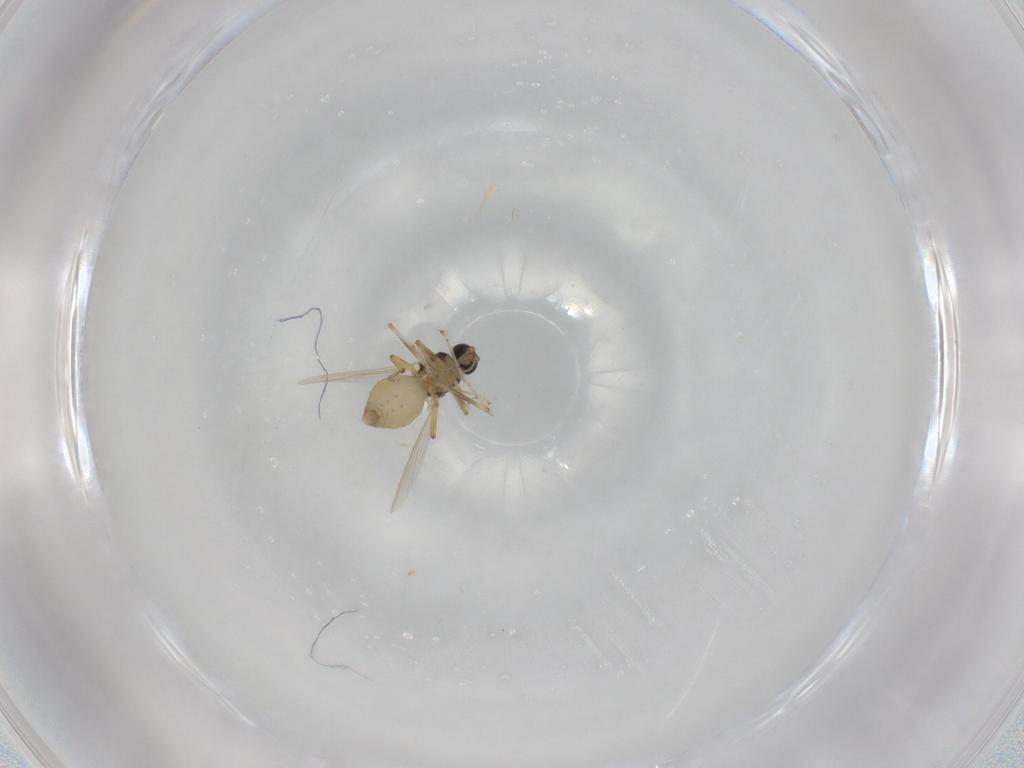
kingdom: Animalia
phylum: Arthropoda
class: Insecta
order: Diptera
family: Ceratopogonidae
